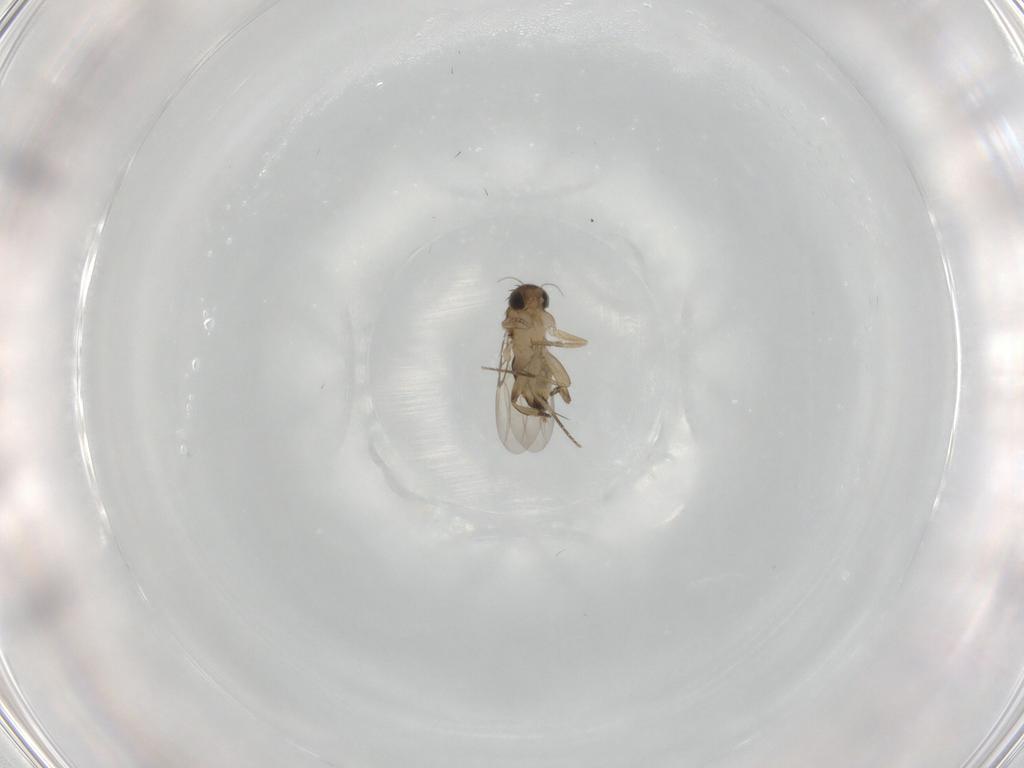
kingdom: Animalia
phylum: Arthropoda
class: Insecta
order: Diptera
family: Phoridae
